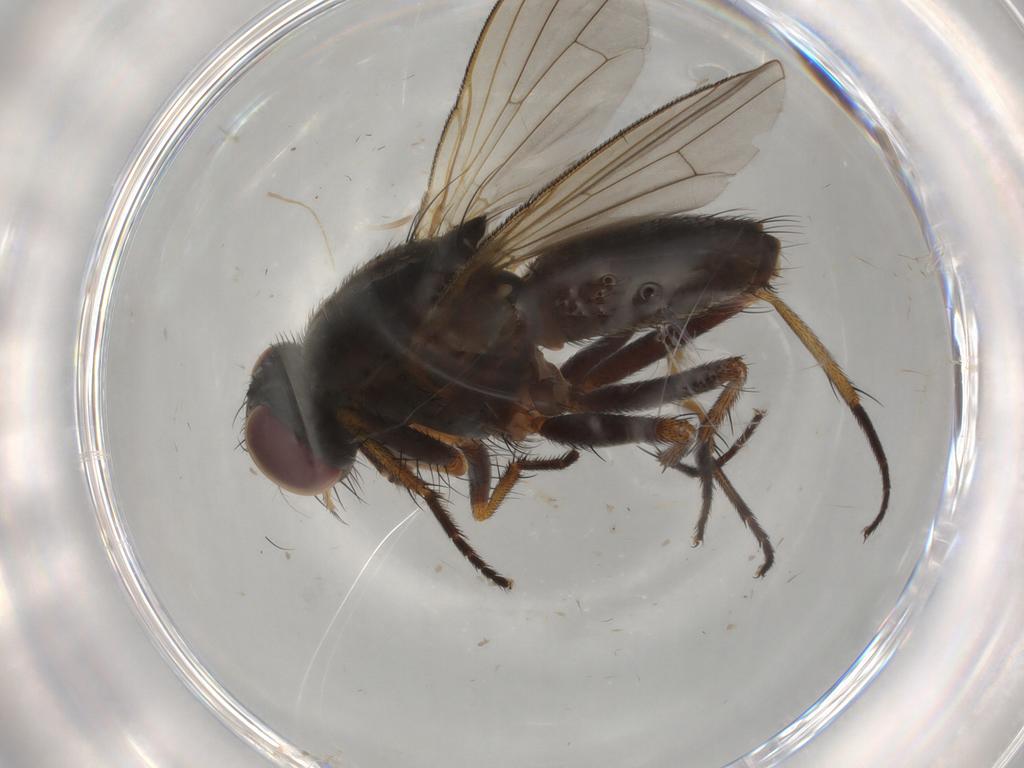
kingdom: Animalia
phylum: Arthropoda
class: Insecta
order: Diptera
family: Muscidae
